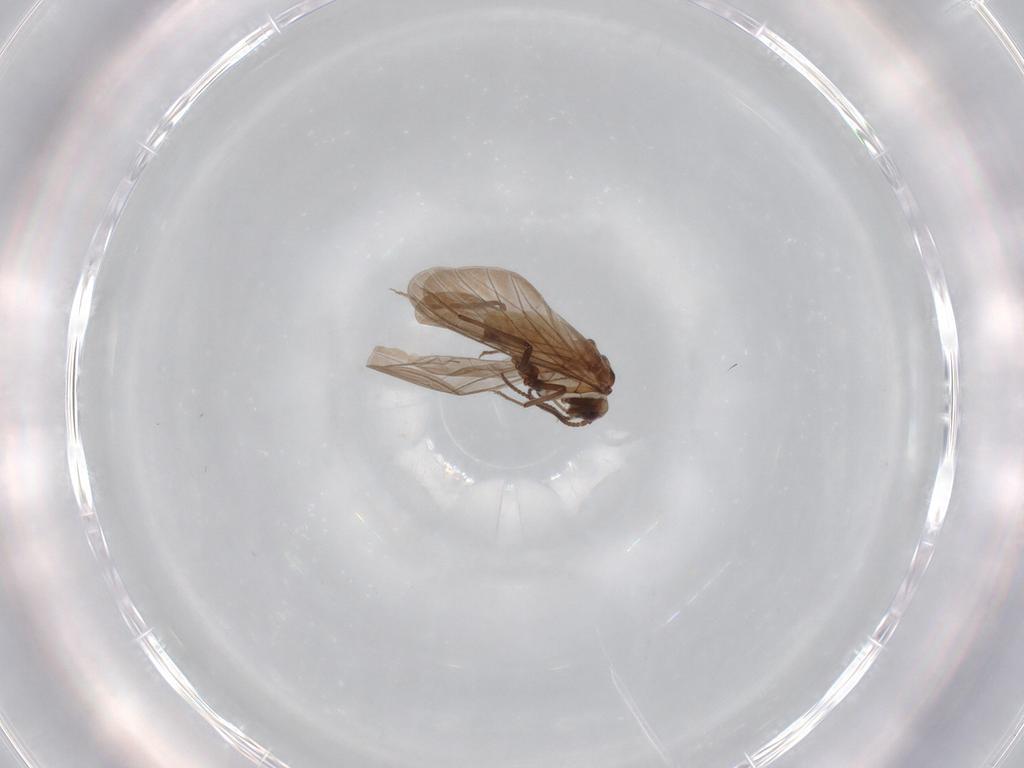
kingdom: Animalia
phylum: Arthropoda
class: Insecta
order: Neuroptera
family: Coniopterygidae
